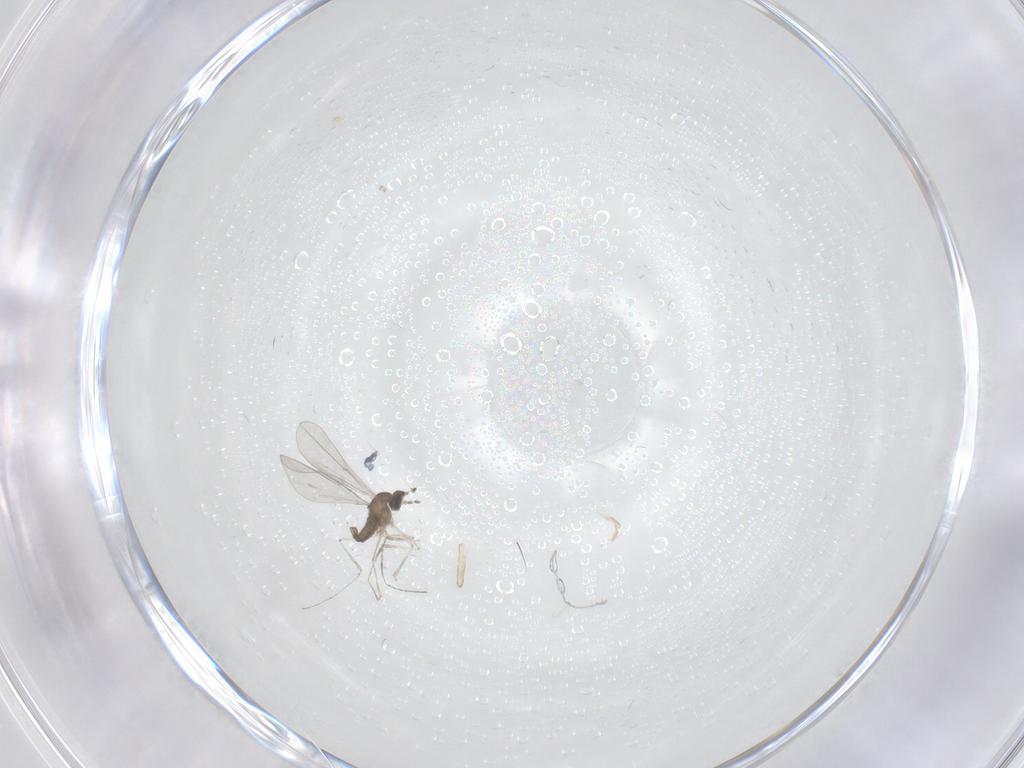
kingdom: Animalia
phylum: Arthropoda
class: Insecta
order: Diptera
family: Cecidomyiidae
